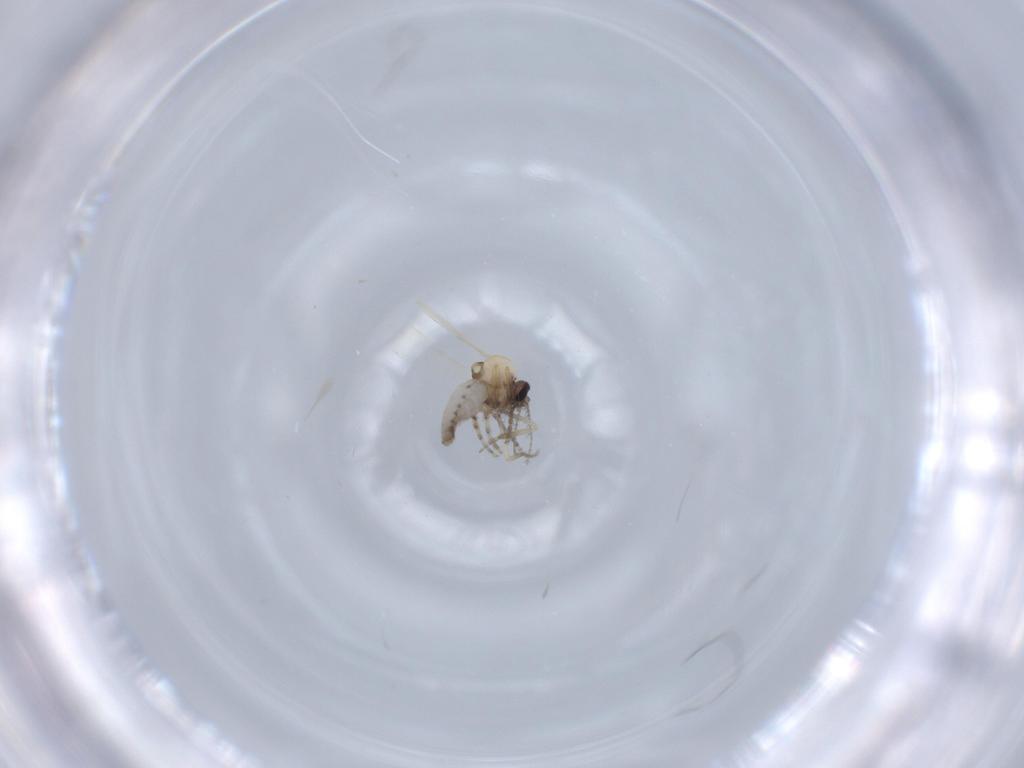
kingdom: Animalia
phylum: Arthropoda
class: Insecta
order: Diptera
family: Ceratopogonidae
